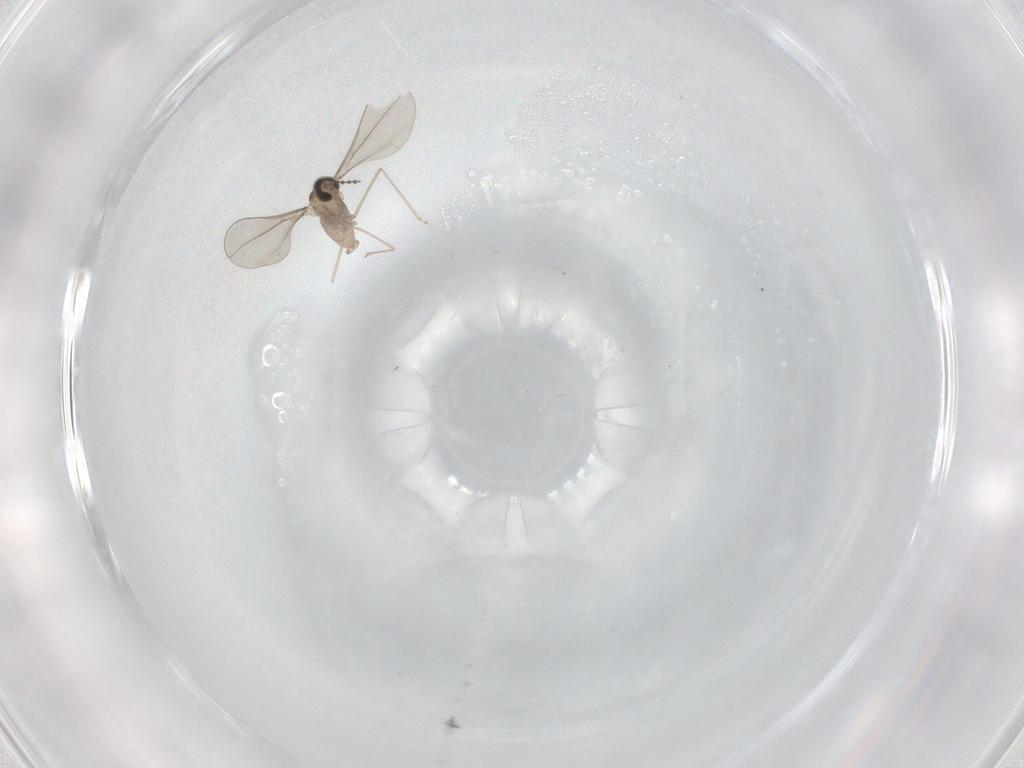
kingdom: Animalia
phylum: Arthropoda
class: Insecta
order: Diptera
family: Cecidomyiidae
